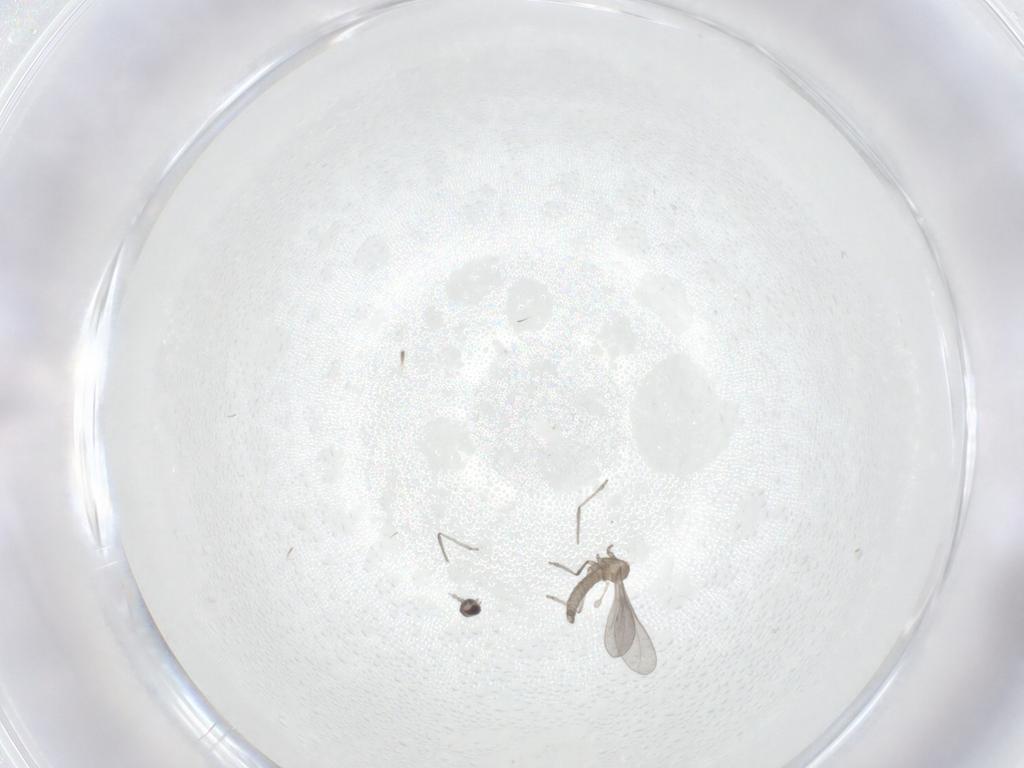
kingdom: Animalia
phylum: Arthropoda
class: Insecta
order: Diptera
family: Cecidomyiidae
